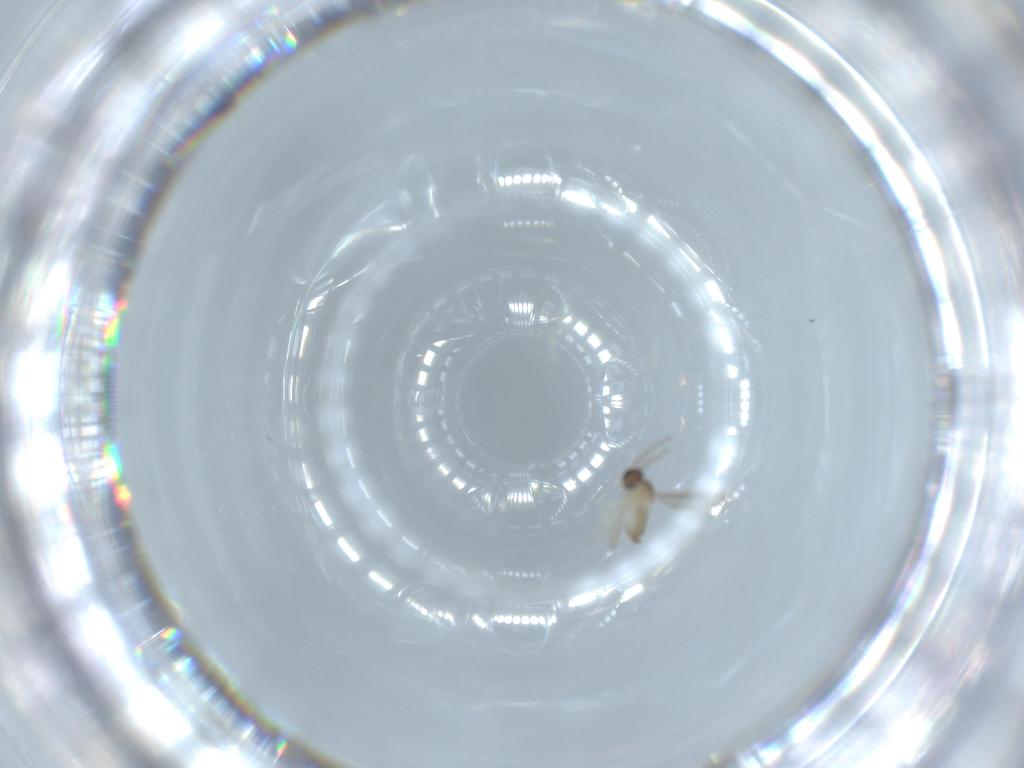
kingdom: Animalia
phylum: Arthropoda
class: Insecta
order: Diptera
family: Cecidomyiidae
